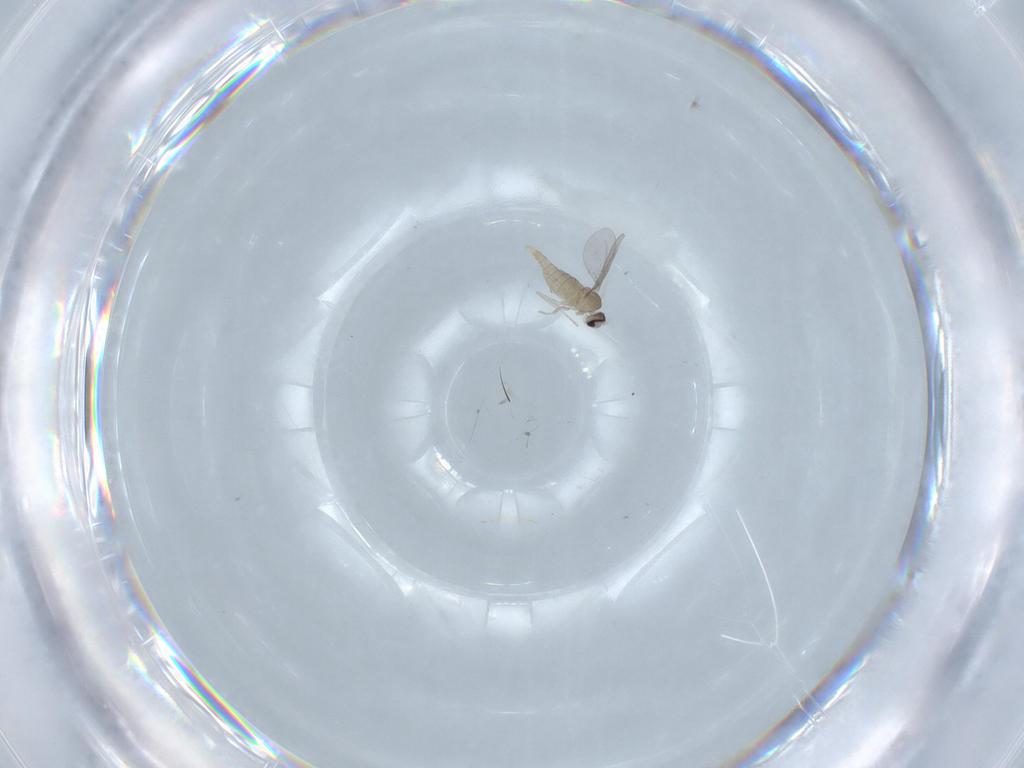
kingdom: Animalia
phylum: Arthropoda
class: Insecta
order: Diptera
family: Cecidomyiidae
